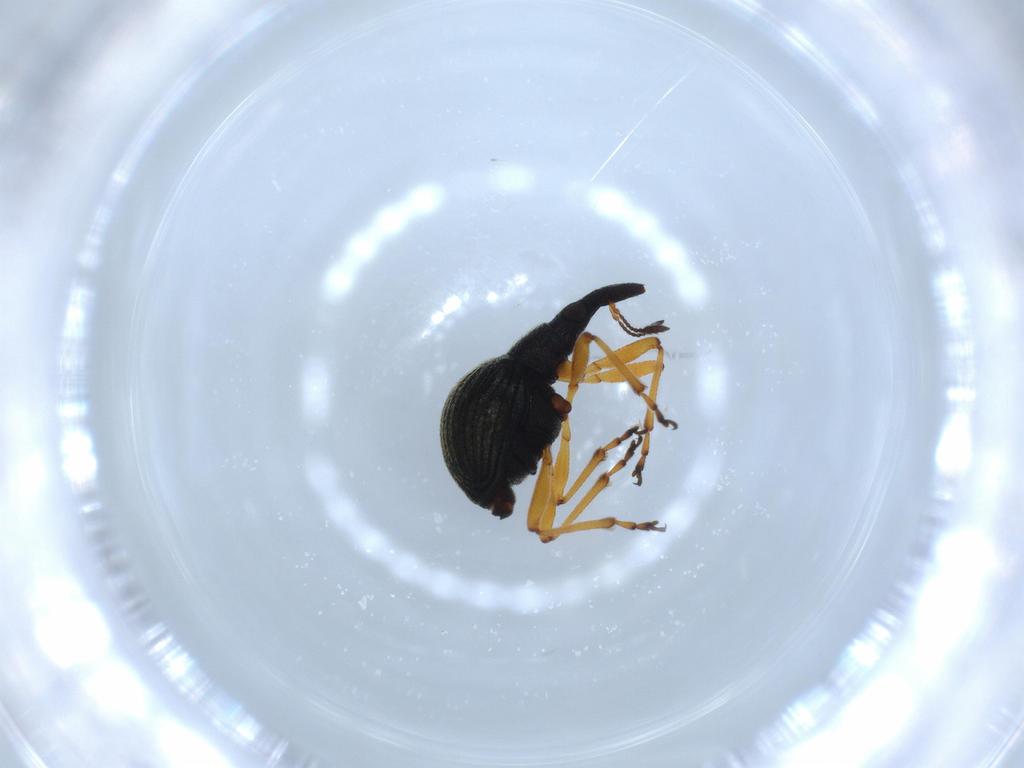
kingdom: Animalia
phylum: Arthropoda
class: Insecta
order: Coleoptera
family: Brentidae
